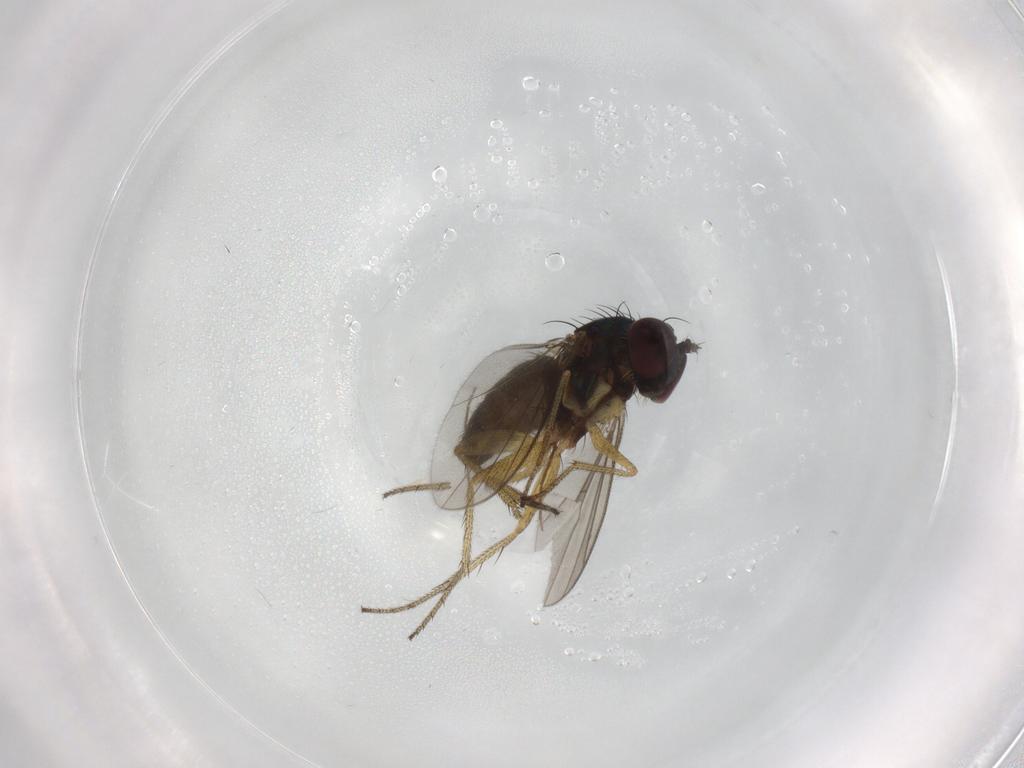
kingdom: Animalia
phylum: Arthropoda
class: Insecta
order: Diptera
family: Dolichopodidae
